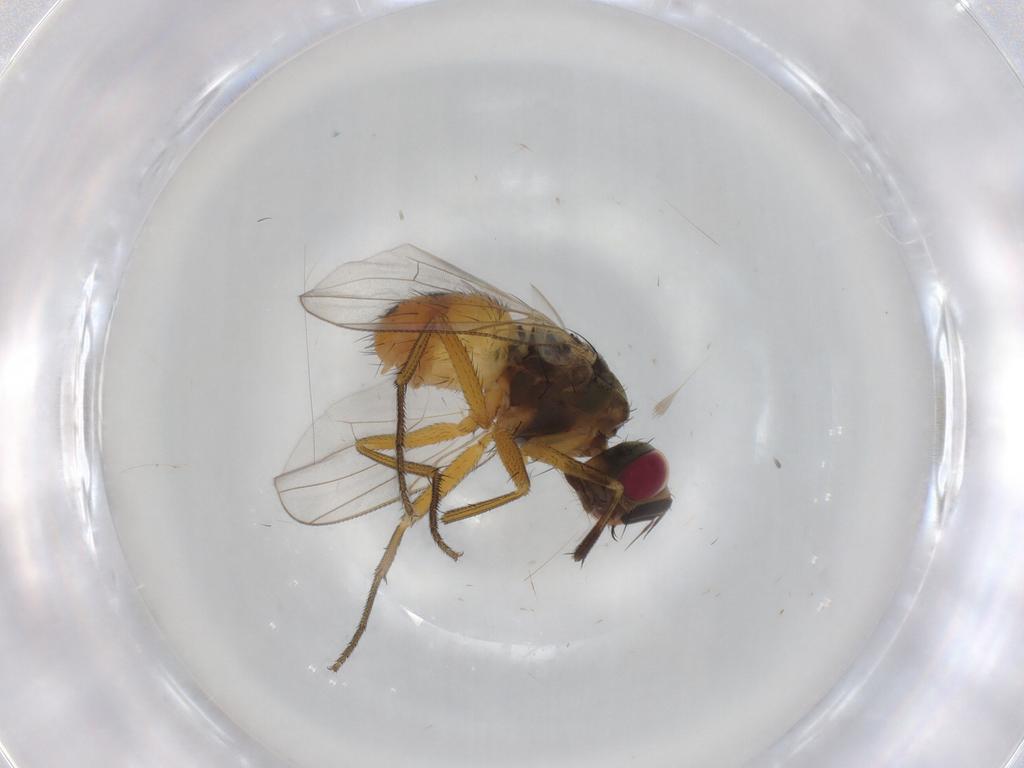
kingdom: Animalia
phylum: Arthropoda
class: Insecta
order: Diptera
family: Muscidae
